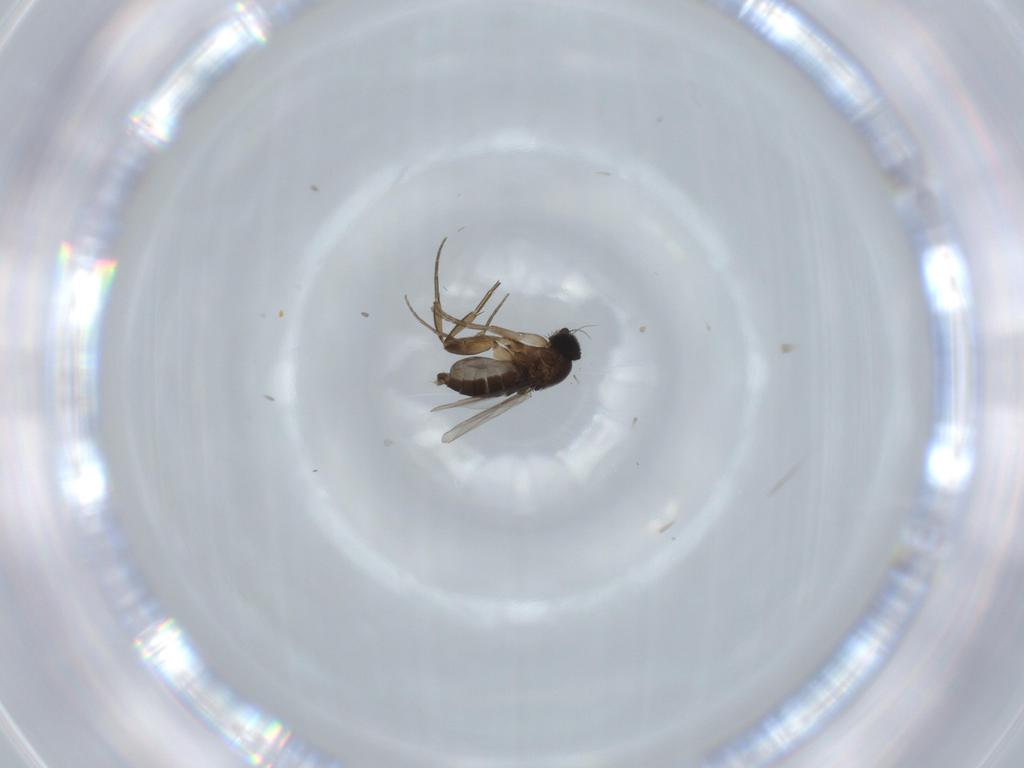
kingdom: Animalia
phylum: Arthropoda
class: Insecta
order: Diptera
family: Phoridae
